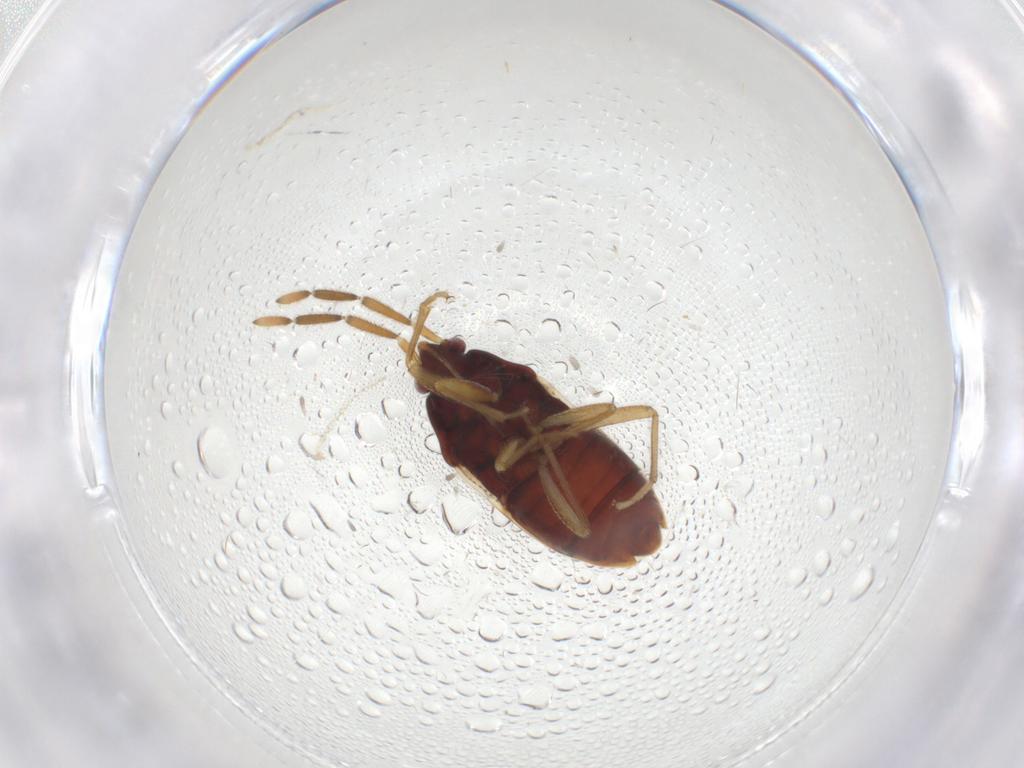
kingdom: Animalia
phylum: Arthropoda
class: Insecta
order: Hemiptera
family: Rhyparochromidae
